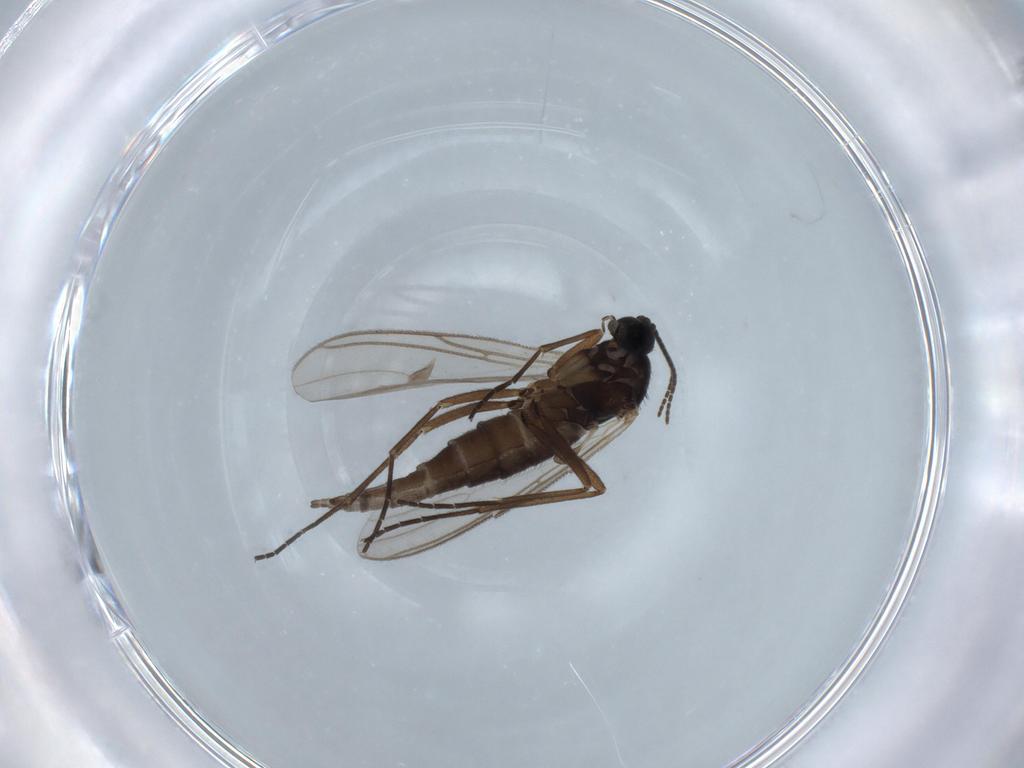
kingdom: Animalia
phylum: Arthropoda
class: Insecta
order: Diptera
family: Sciaridae
